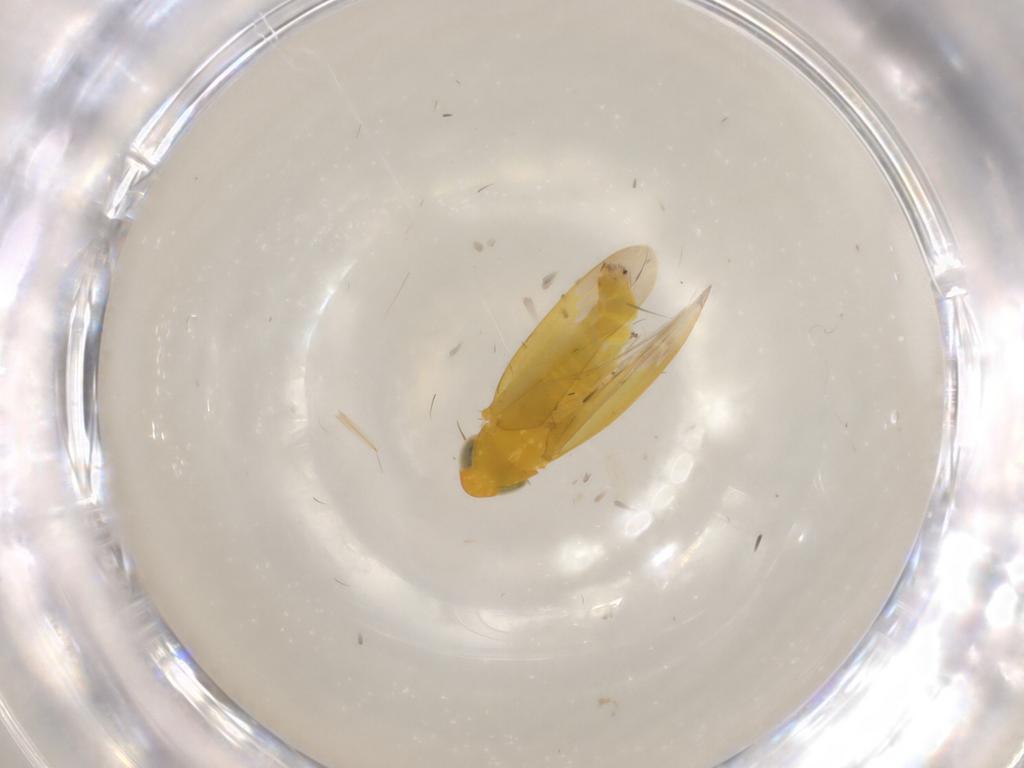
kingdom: Animalia
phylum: Arthropoda
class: Insecta
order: Hemiptera
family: Cicadellidae
